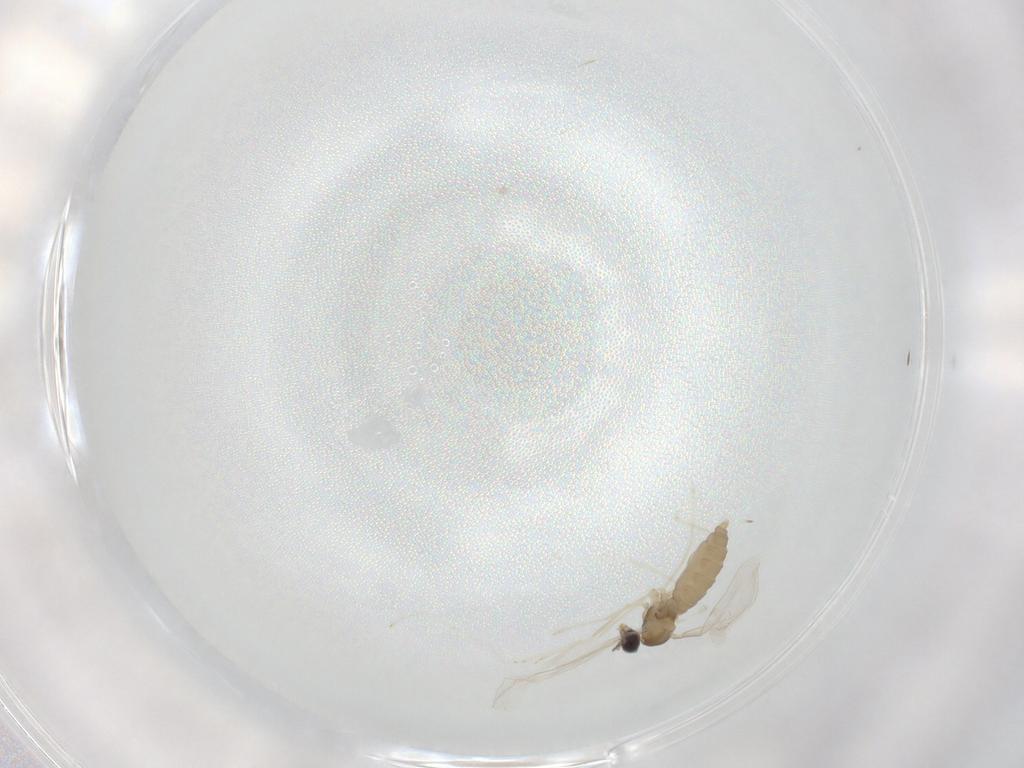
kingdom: Animalia
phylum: Arthropoda
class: Insecta
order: Diptera
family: Cecidomyiidae
